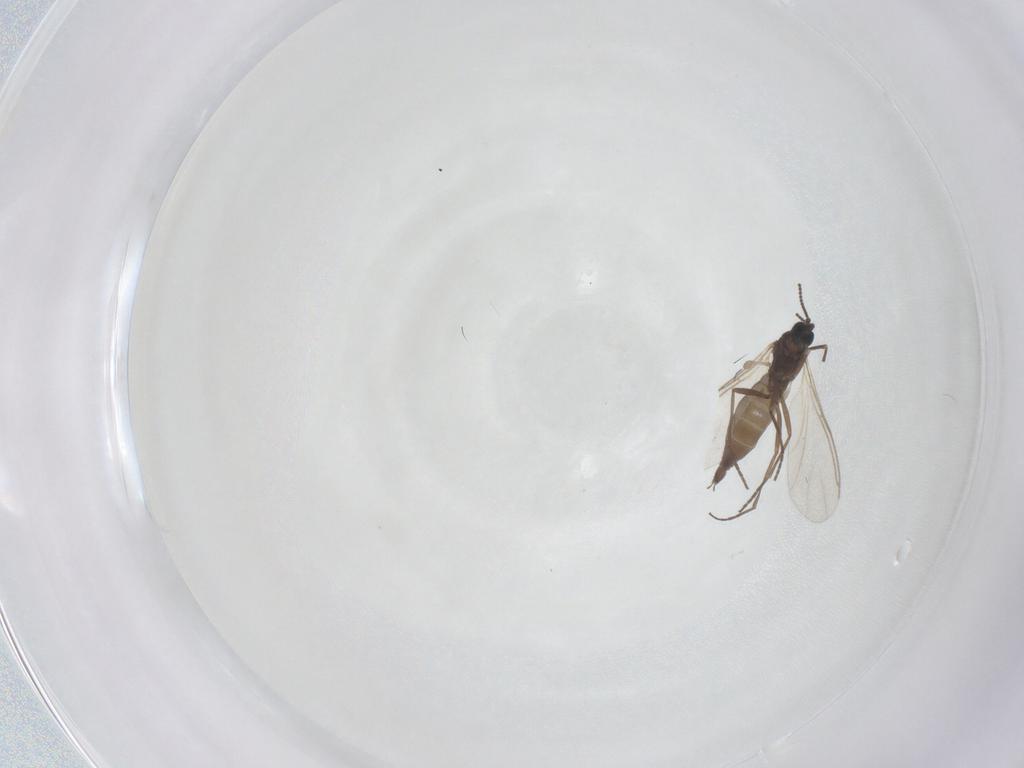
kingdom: Animalia
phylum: Arthropoda
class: Insecta
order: Diptera
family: Sciaridae
